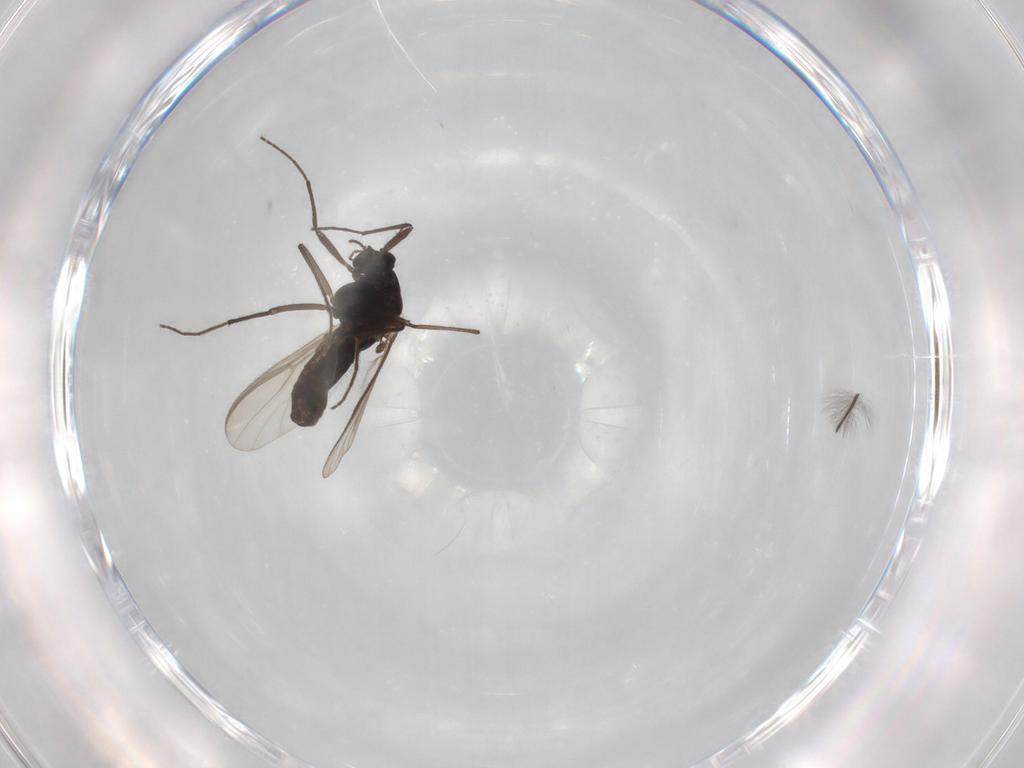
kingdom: Animalia
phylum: Arthropoda
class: Insecta
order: Diptera
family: Chironomidae
